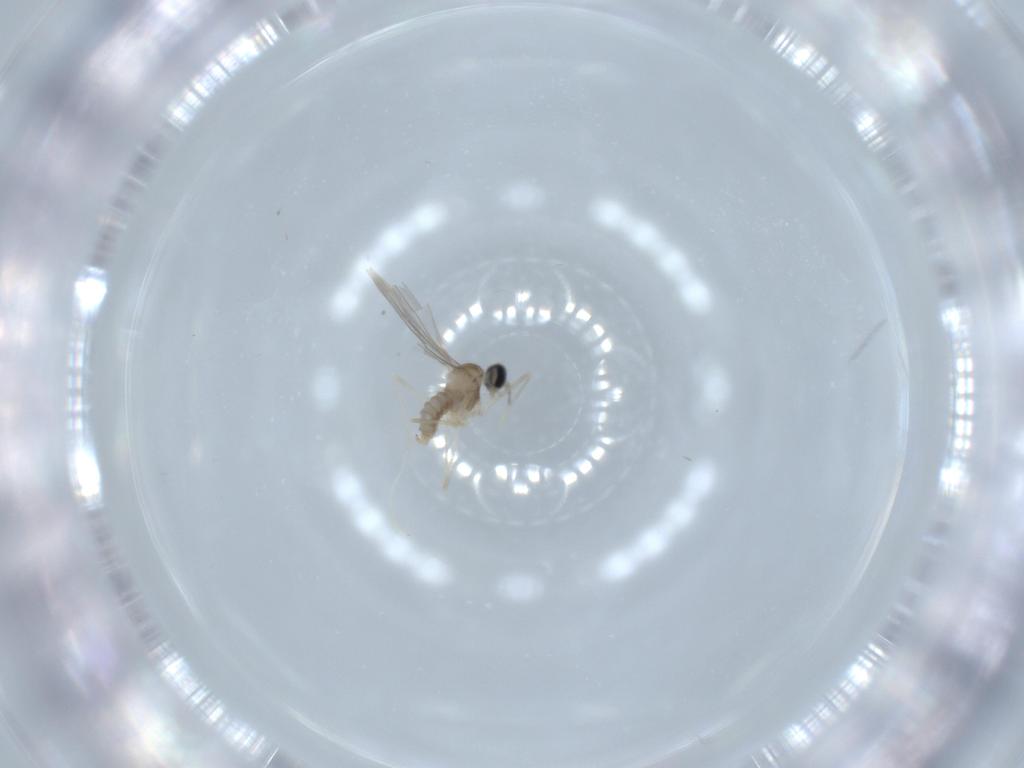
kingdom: Animalia
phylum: Arthropoda
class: Insecta
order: Diptera
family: Cecidomyiidae
